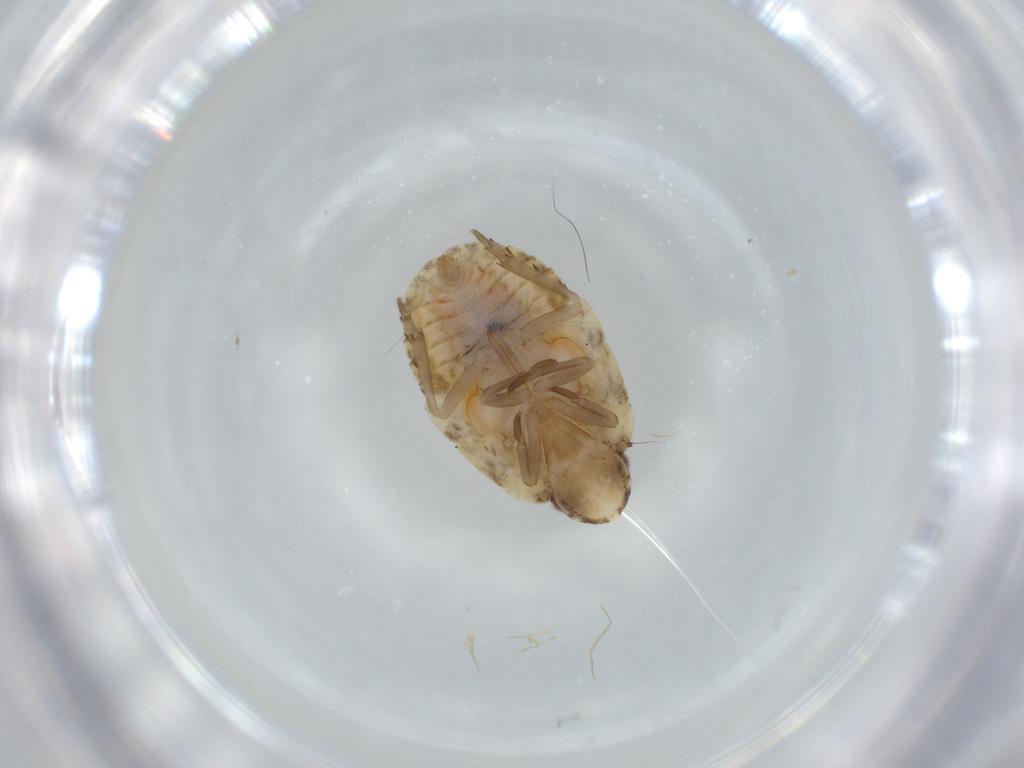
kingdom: Animalia
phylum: Arthropoda
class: Insecta
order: Hemiptera
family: Flatidae
